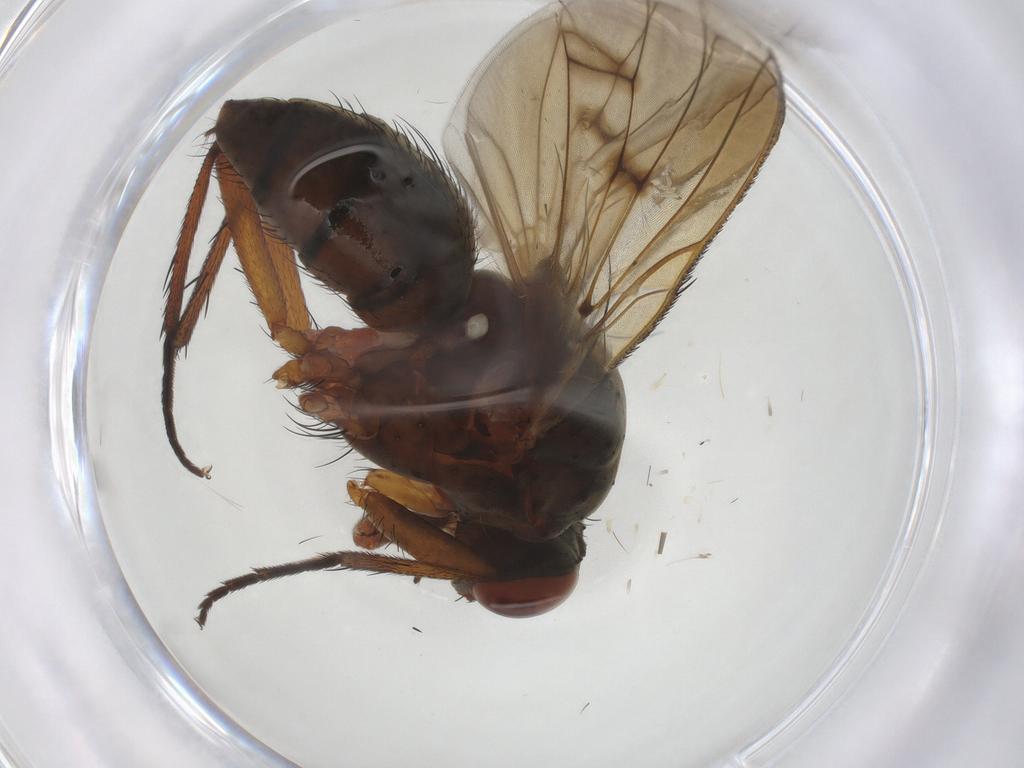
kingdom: Animalia
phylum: Arthropoda
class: Insecta
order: Diptera
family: Anthomyiidae
